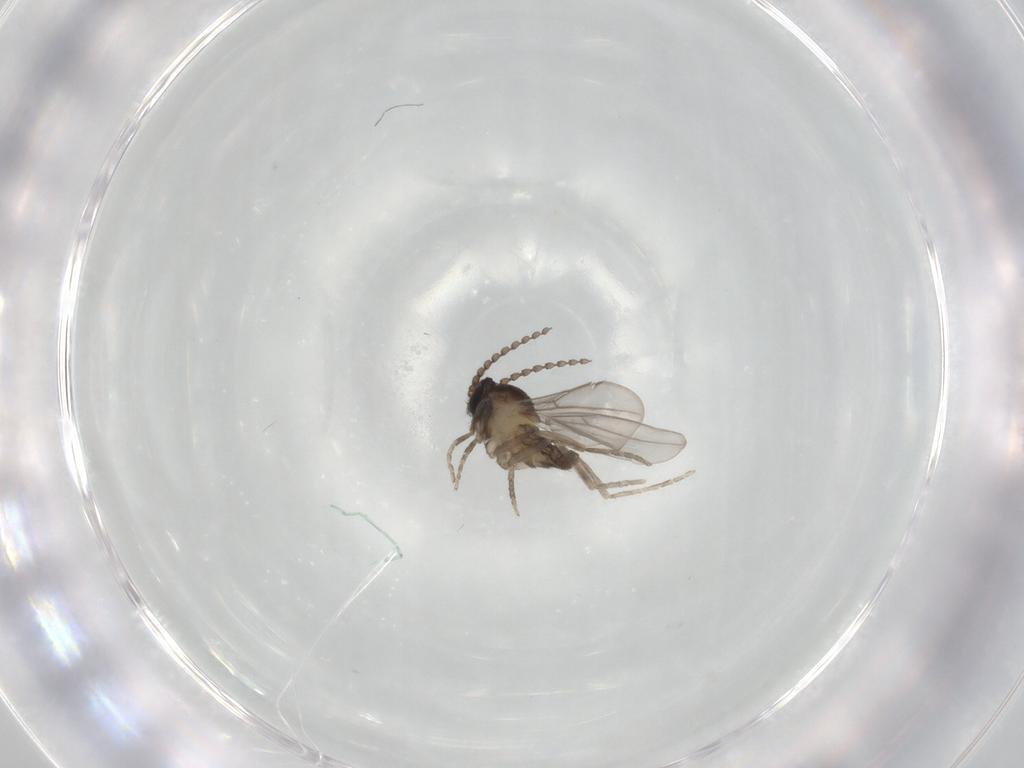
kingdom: Animalia
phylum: Arthropoda
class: Insecta
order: Diptera
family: Cecidomyiidae
